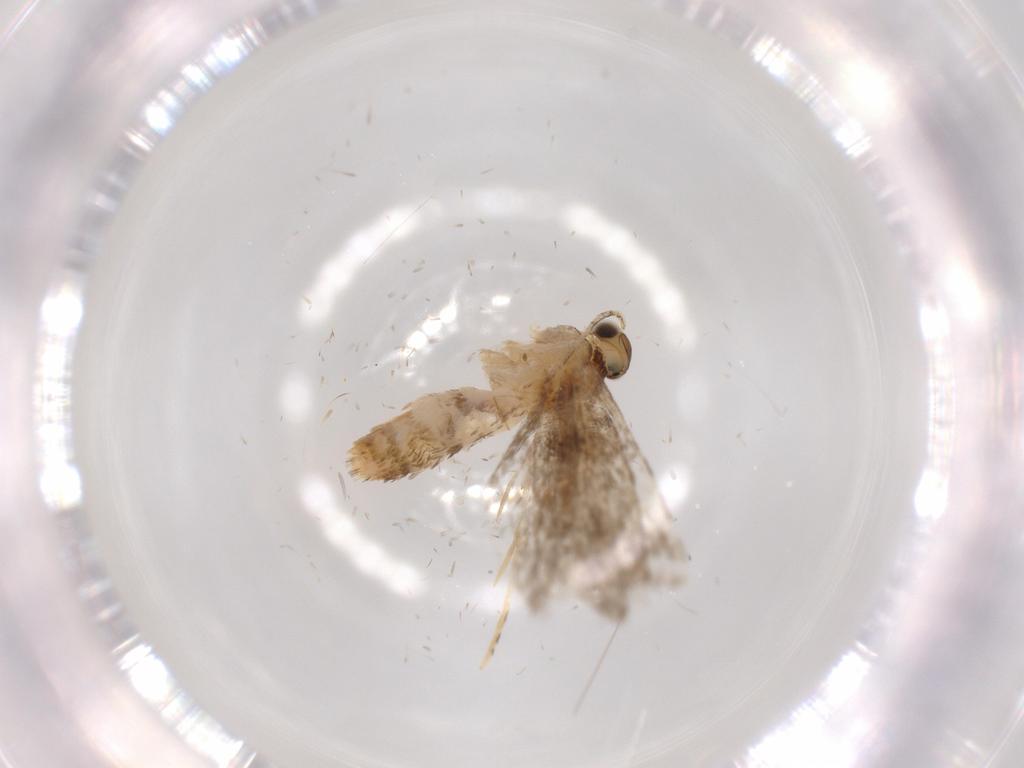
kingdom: Animalia
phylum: Arthropoda
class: Insecta
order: Lepidoptera
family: Tineidae
